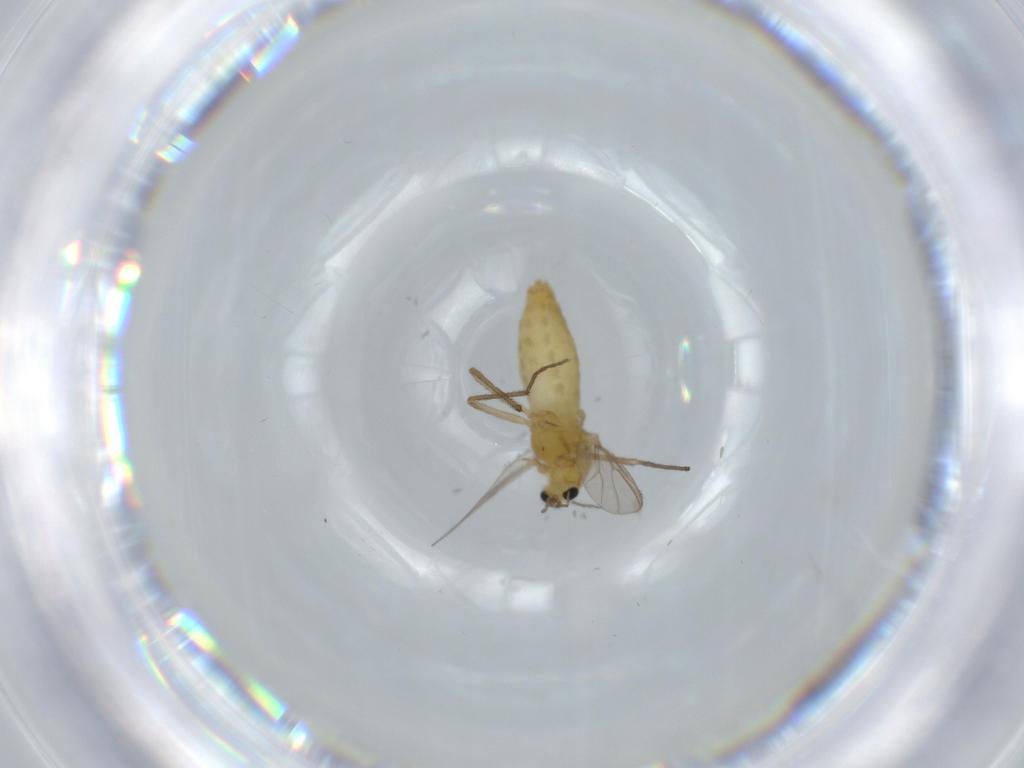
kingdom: Animalia
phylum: Arthropoda
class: Insecta
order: Diptera
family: Chironomidae
